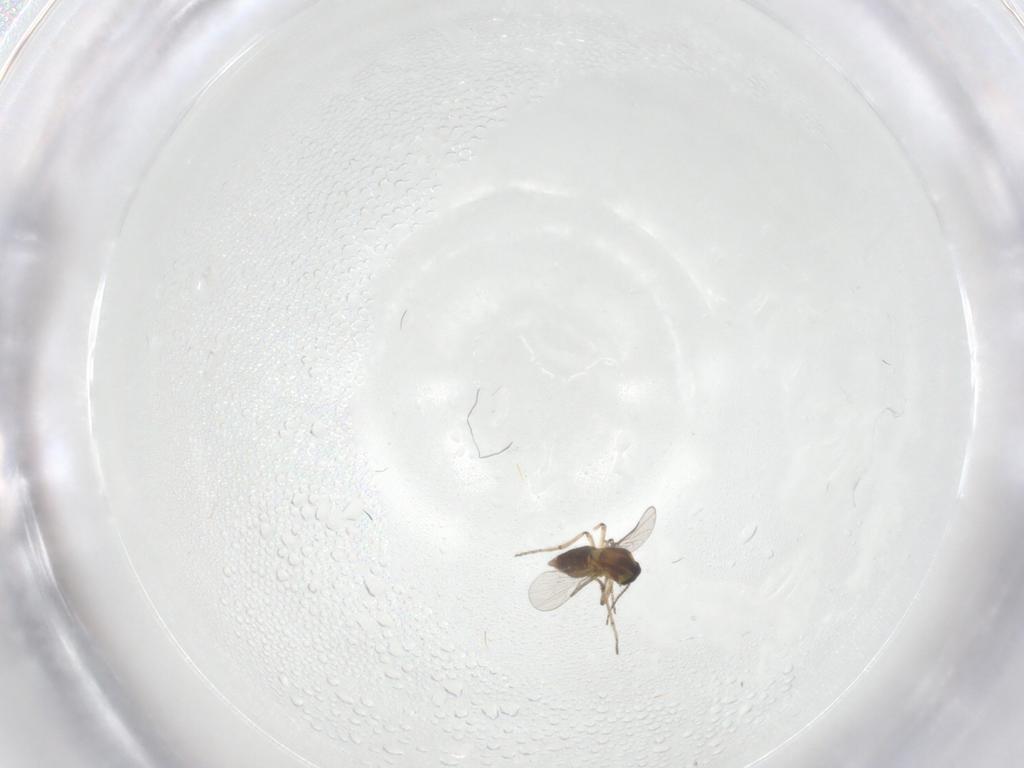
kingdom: Animalia
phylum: Arthropoda
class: Insecta
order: Diptera
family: Ceratopogonidae
